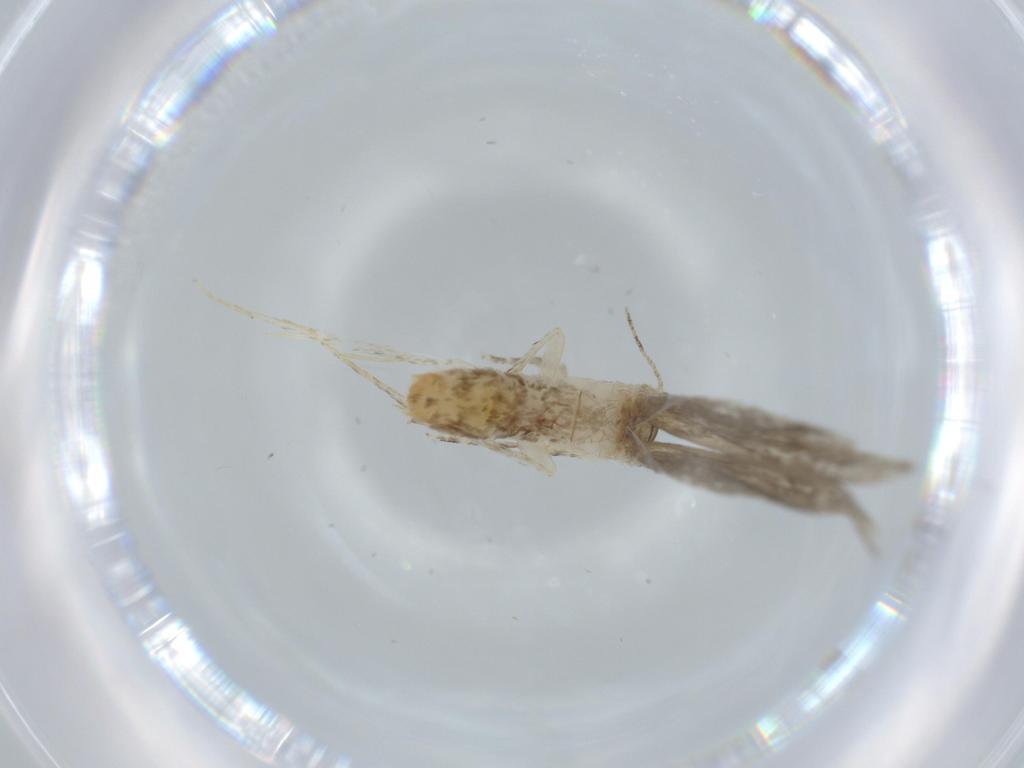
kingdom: Animalia
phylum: Arthropoda
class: Insecta
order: Lepidoptera
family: Tineidae
